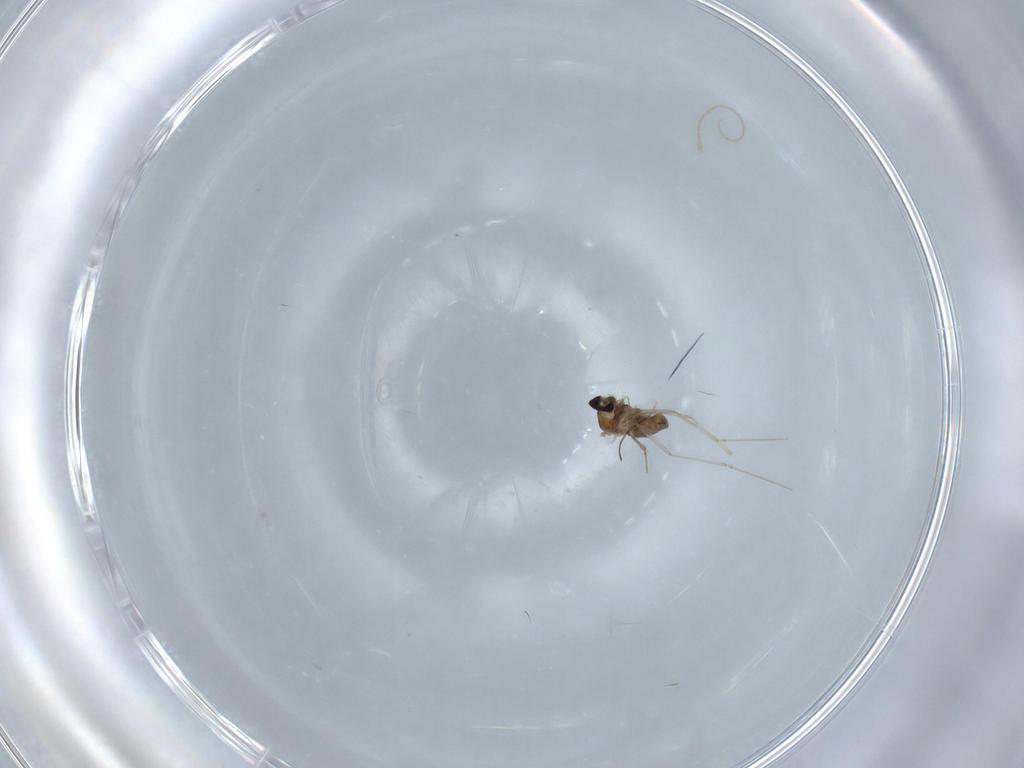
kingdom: Animalia
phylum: Arthropoda
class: Insecta
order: Diptera
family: Cecidomyiidae
